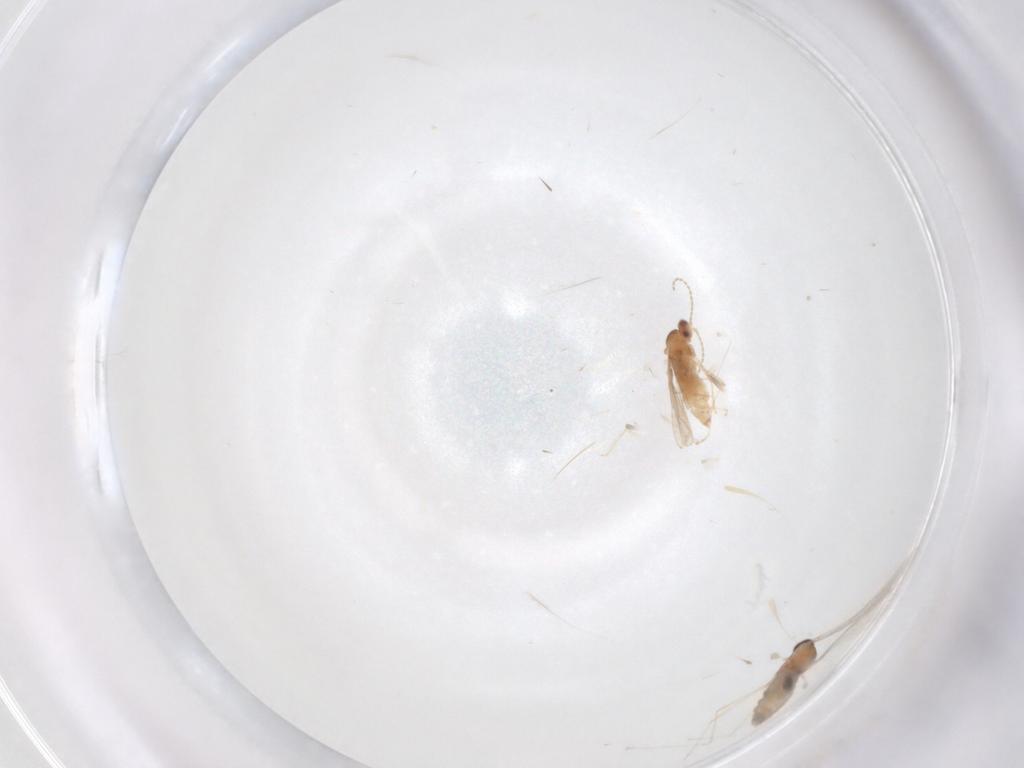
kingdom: Animalia
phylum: Arthropoda
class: Insecta
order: Diptera
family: Cecidomyiidae
